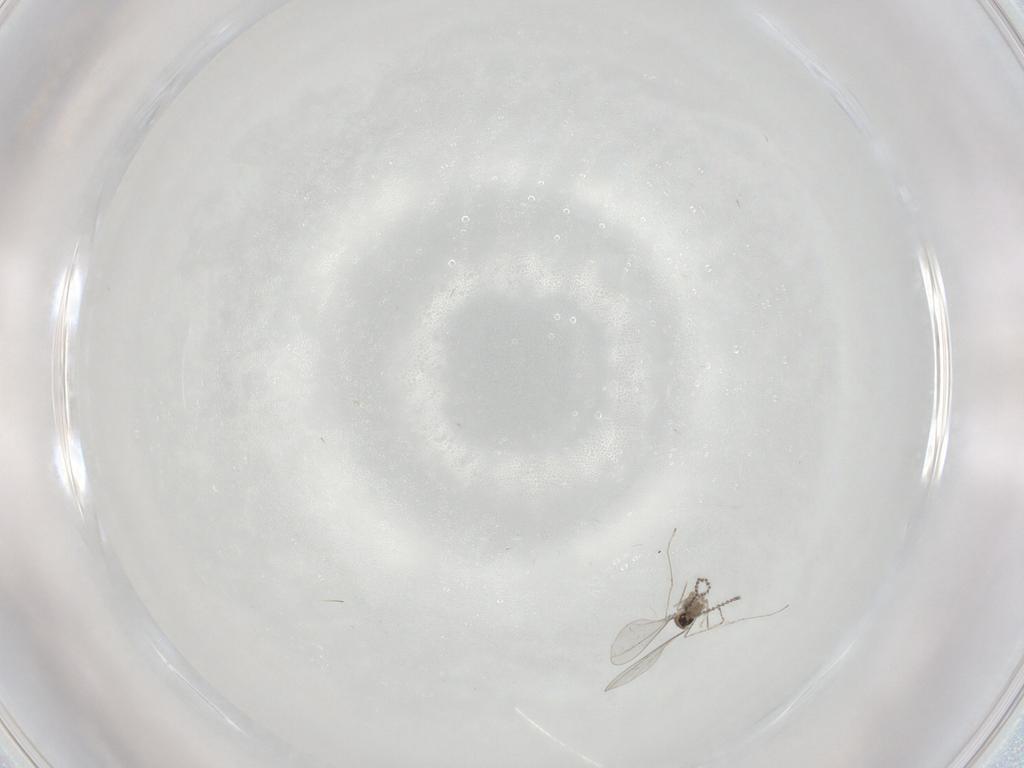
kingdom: Animalia
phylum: Arthropoda
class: Insecta
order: Diptera
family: Cecidomyiidae
